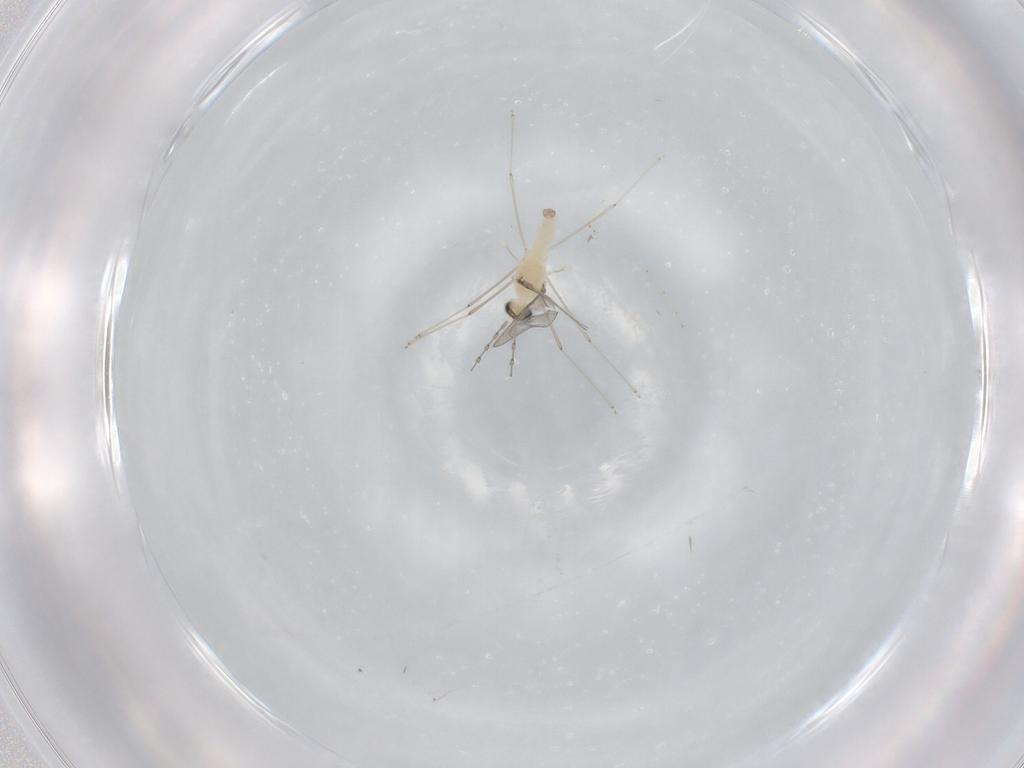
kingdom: Animalia
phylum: Arthropoda
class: Insecta
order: Diptera
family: Cecidomyiidae
